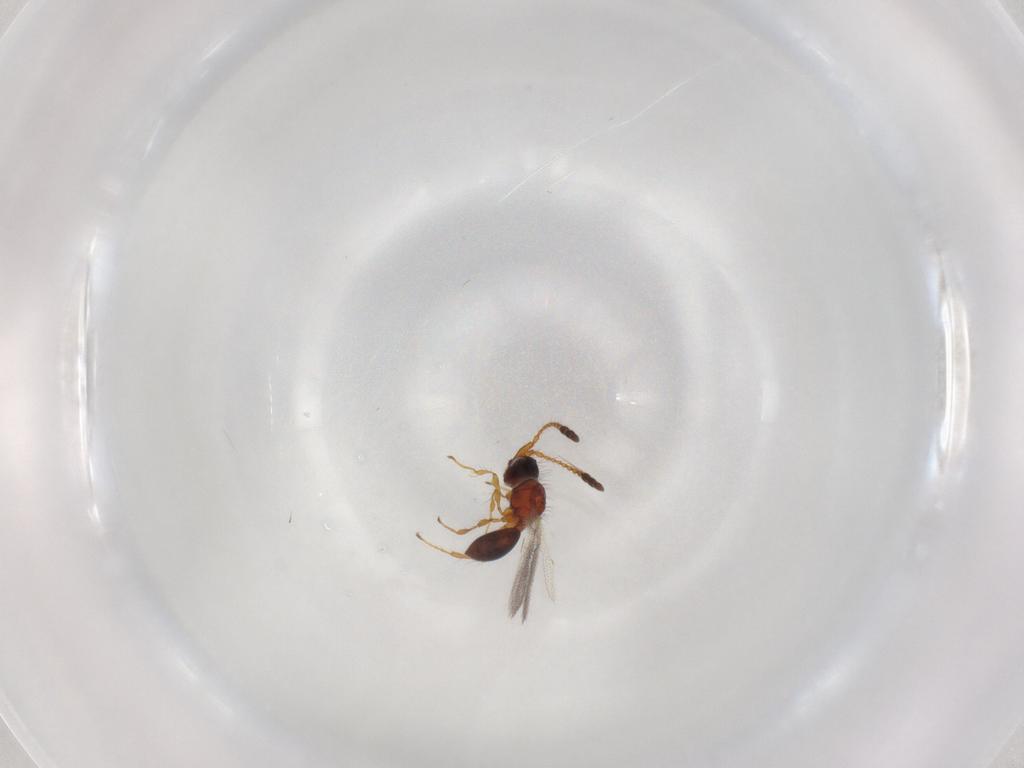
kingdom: Animalia
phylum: Arthropoda
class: Insecta
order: Hymenoptera
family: Diapriidae
